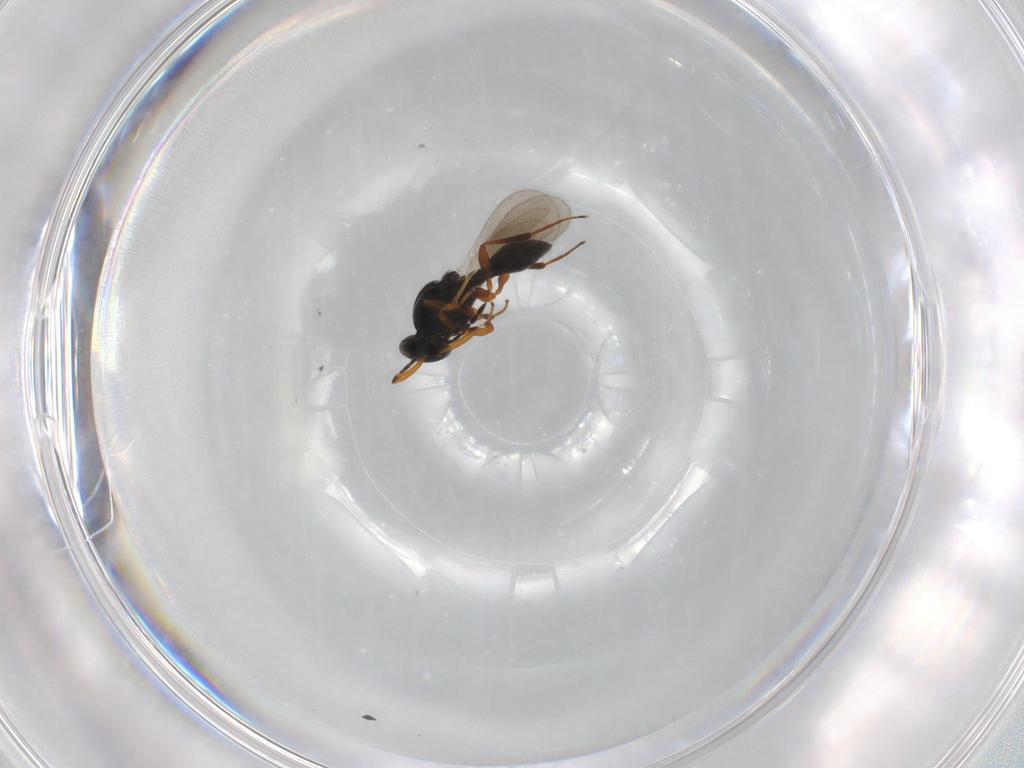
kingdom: Animalia
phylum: Arthropoda
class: Insecta
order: Hymenoptera
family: Platygastridae
